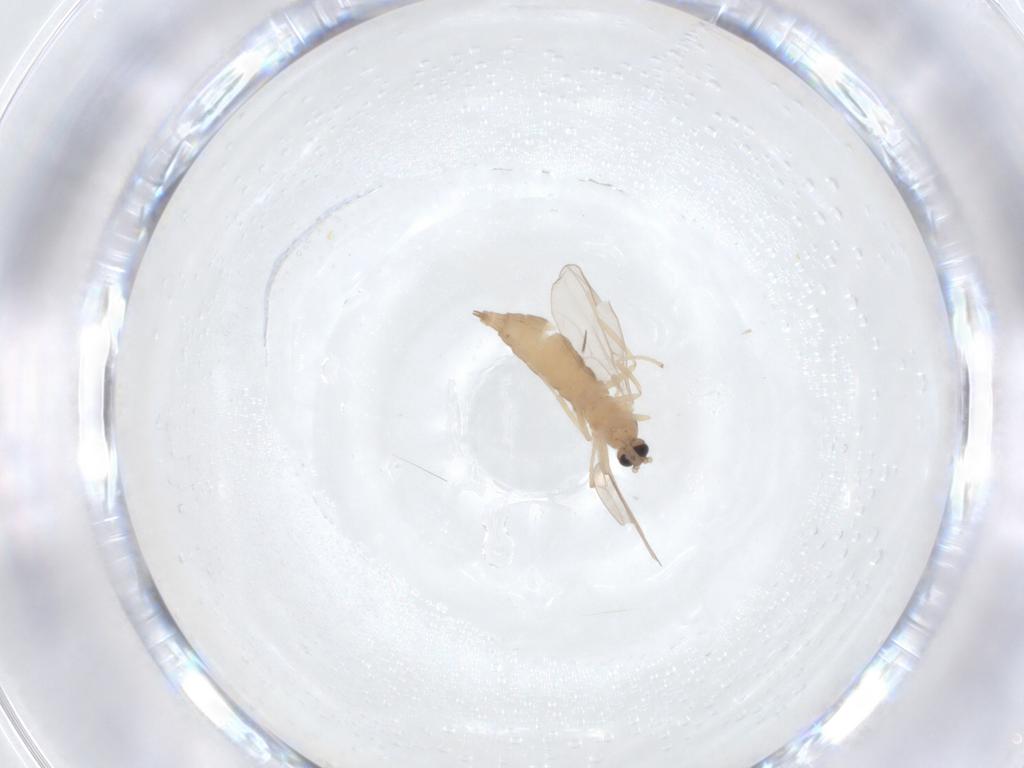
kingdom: Animalia
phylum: Arthropoda
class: Insecta
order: Diptera
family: Cecidomyiidae
